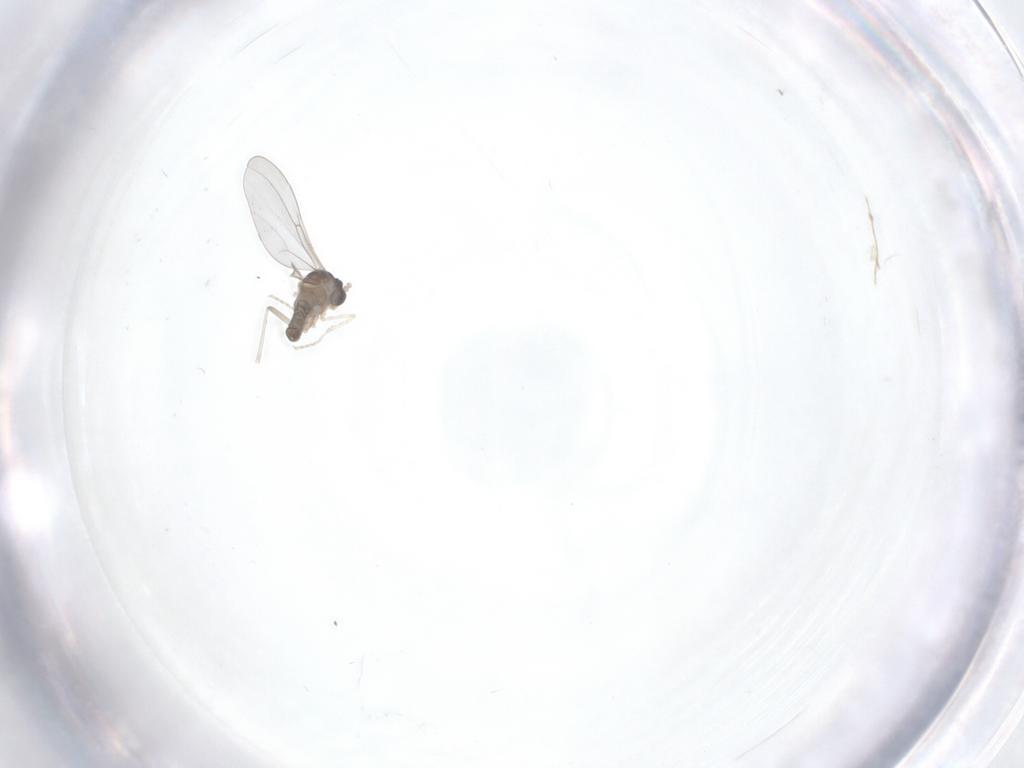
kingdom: Animalia
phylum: Arthropoda
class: Insecta
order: Diptera
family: Cecidomyiidae
